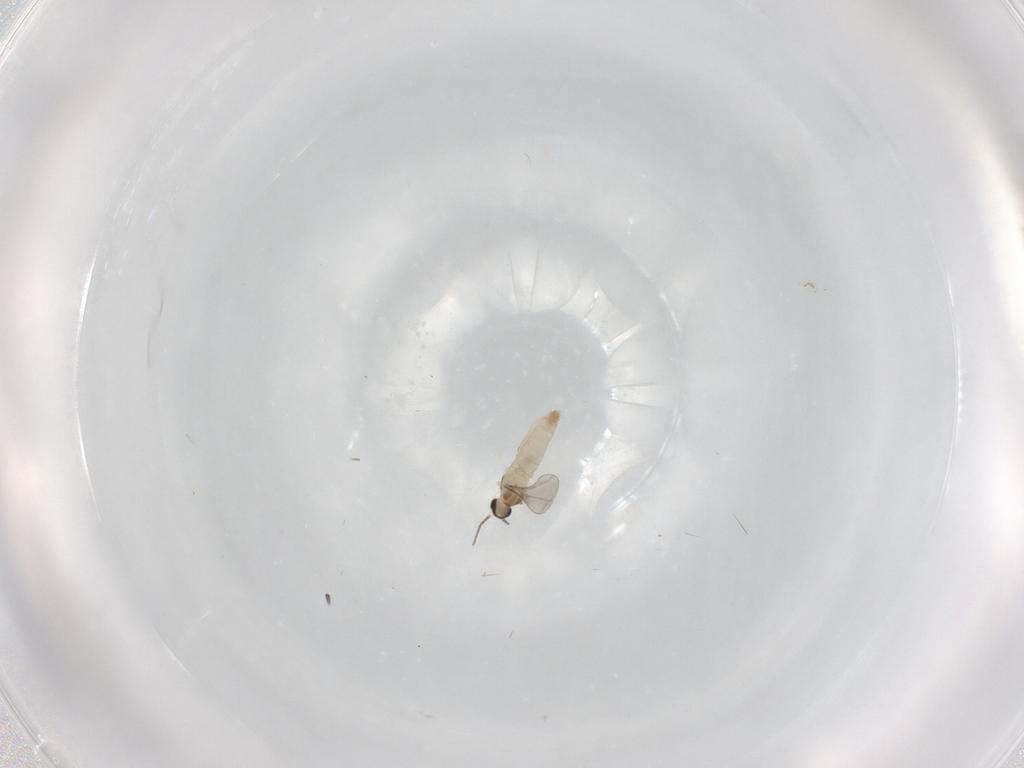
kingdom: Animalia
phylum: Arthropoda
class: Insecta
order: Diptera
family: Cecidomyiidae
